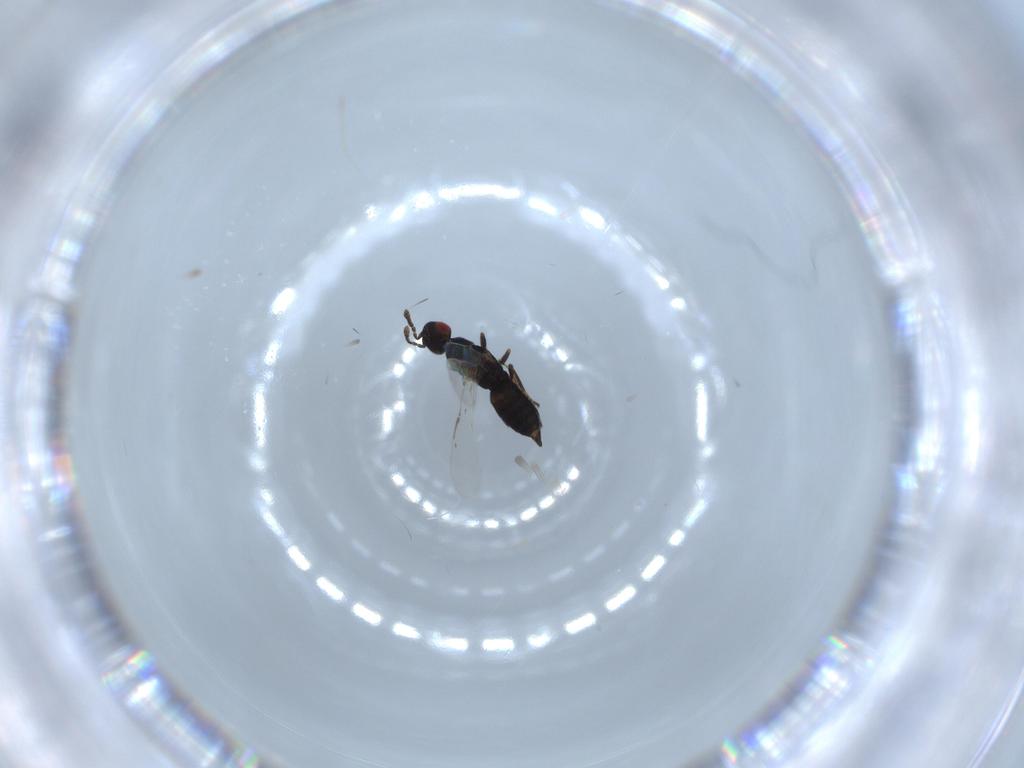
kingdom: Animalia
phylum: Arthropoda
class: Insecta
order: Hymenoptera
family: Eulophidae
